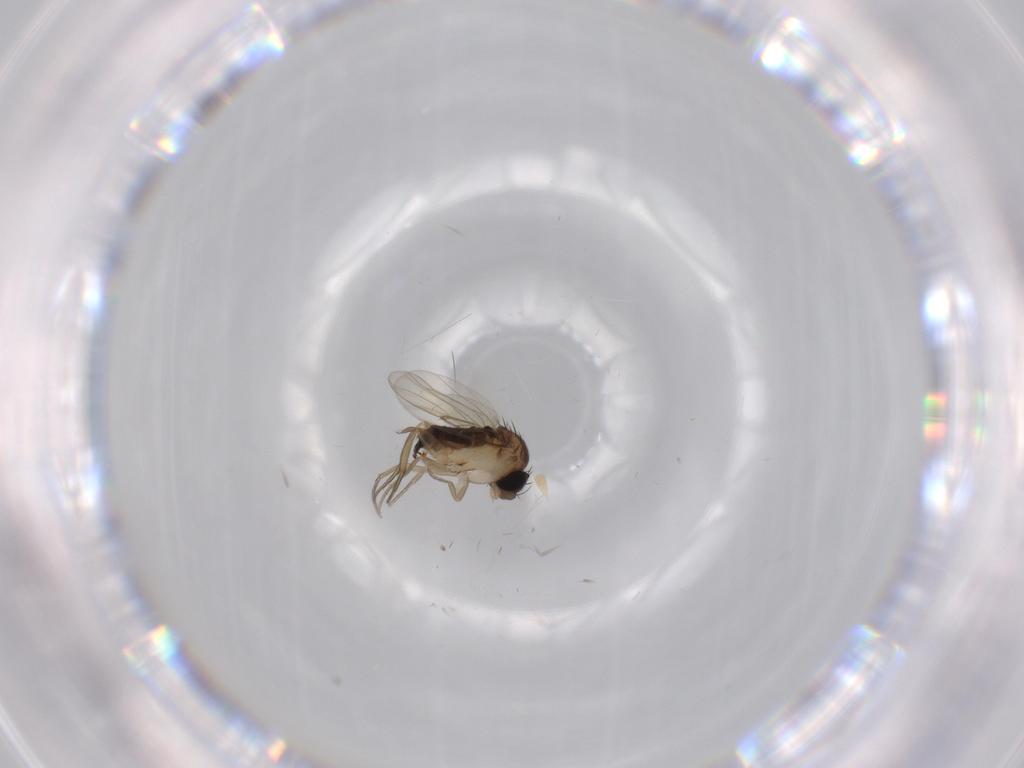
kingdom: Animalia
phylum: Arthropoda
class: Insecta
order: Diptera
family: Phoridae
